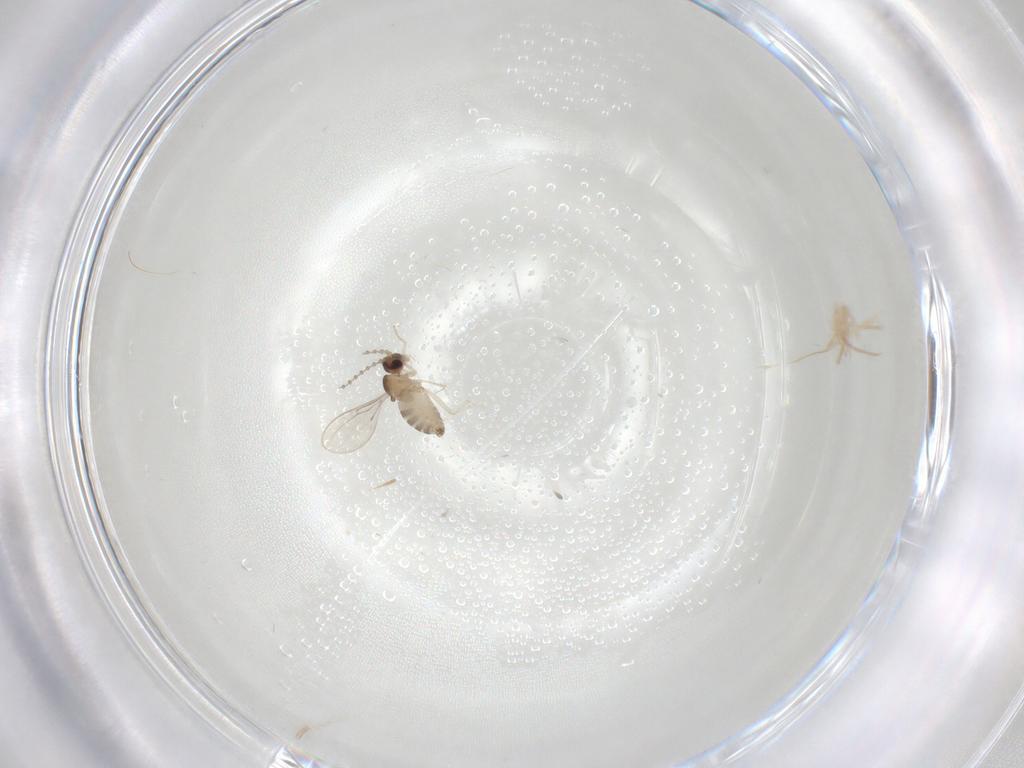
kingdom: Animalia
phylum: Arthropoda
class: Insecta
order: Diptera
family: Cecidomyiidae
